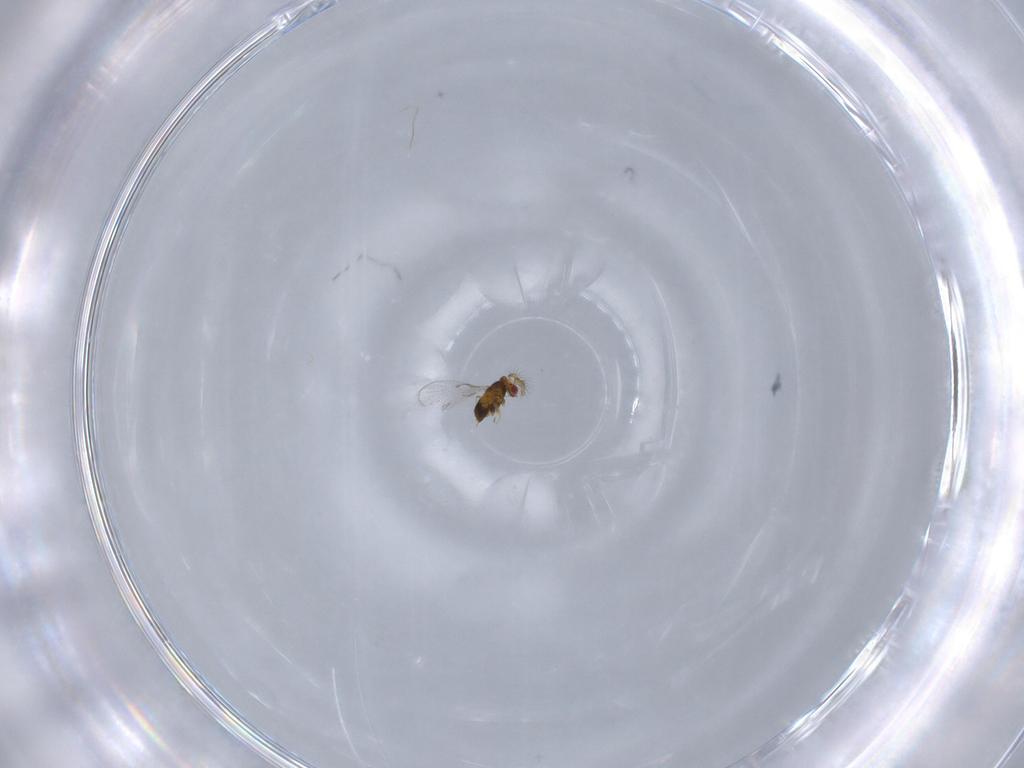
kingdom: Animalia
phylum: Arthropoda
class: Insecta
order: Hymenoptera
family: Trichogrammatidae
